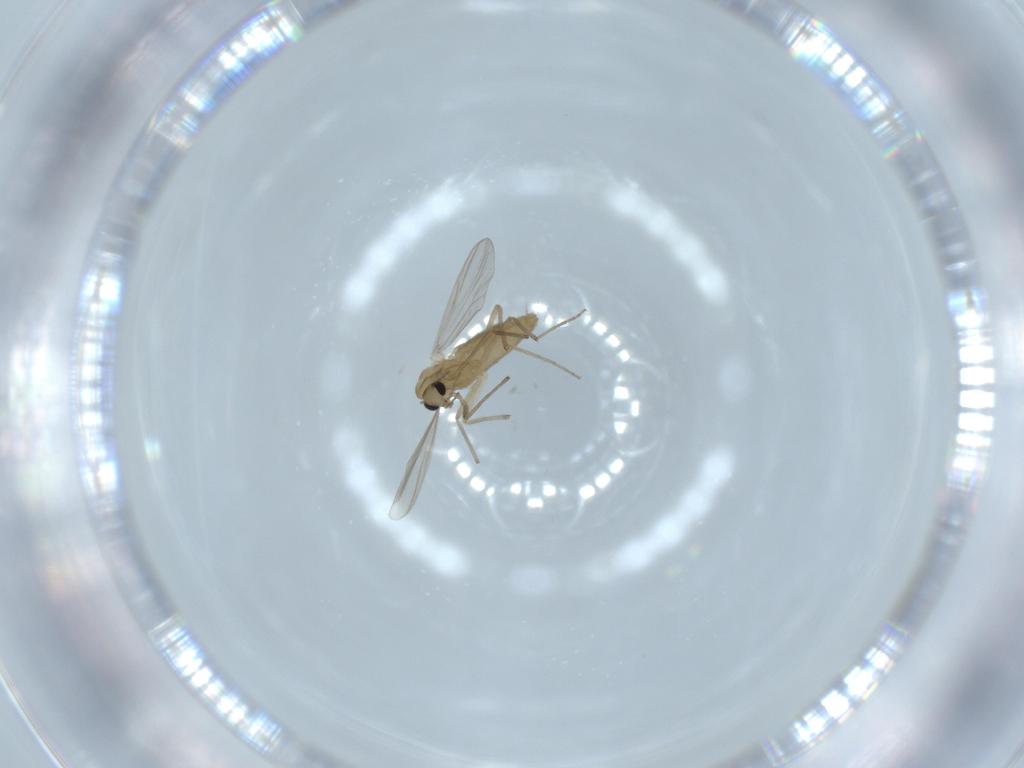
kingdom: Animalia
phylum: Arthropoda
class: Insecta
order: Diptera
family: Chironomidae
